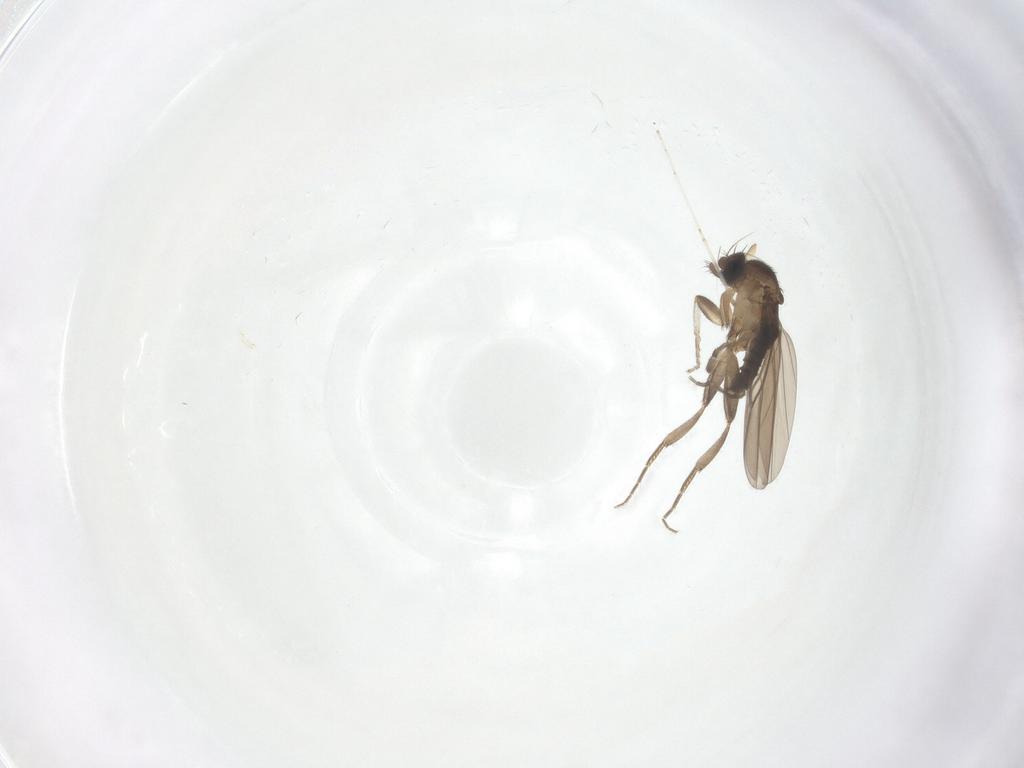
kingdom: Animalia
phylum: Arthropoda
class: Insecta
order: Diptera
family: Cecidomyiidae
